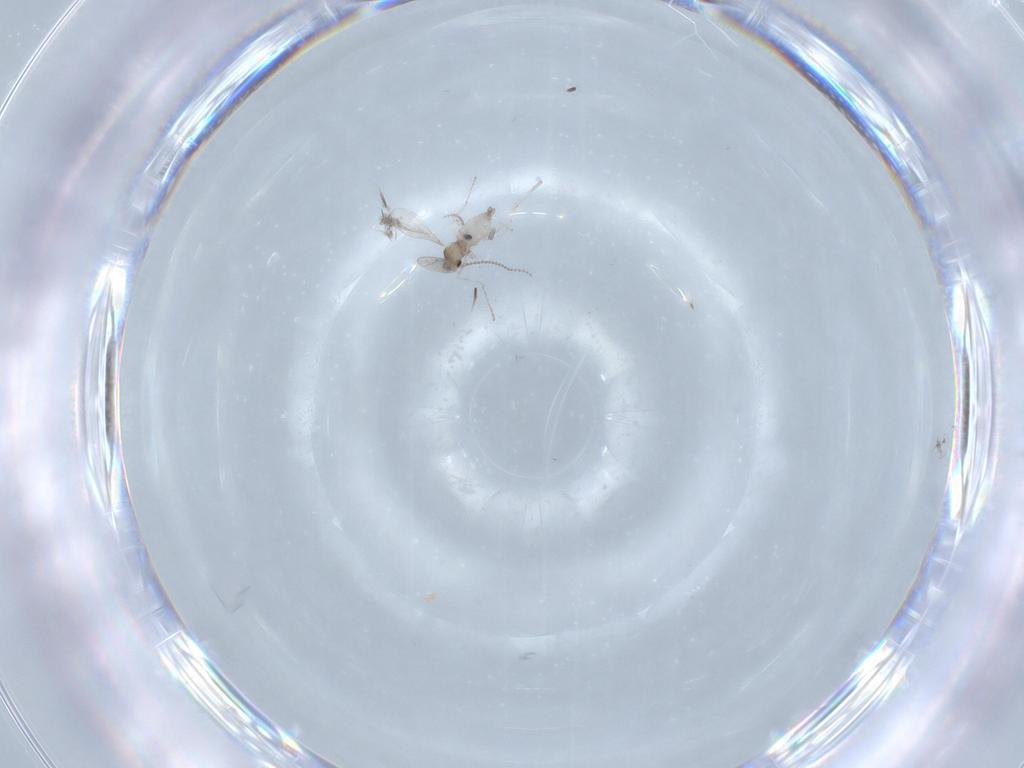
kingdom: Animalia
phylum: Arthropoda
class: Insecta
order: Diptera
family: Cecidomyiidae
